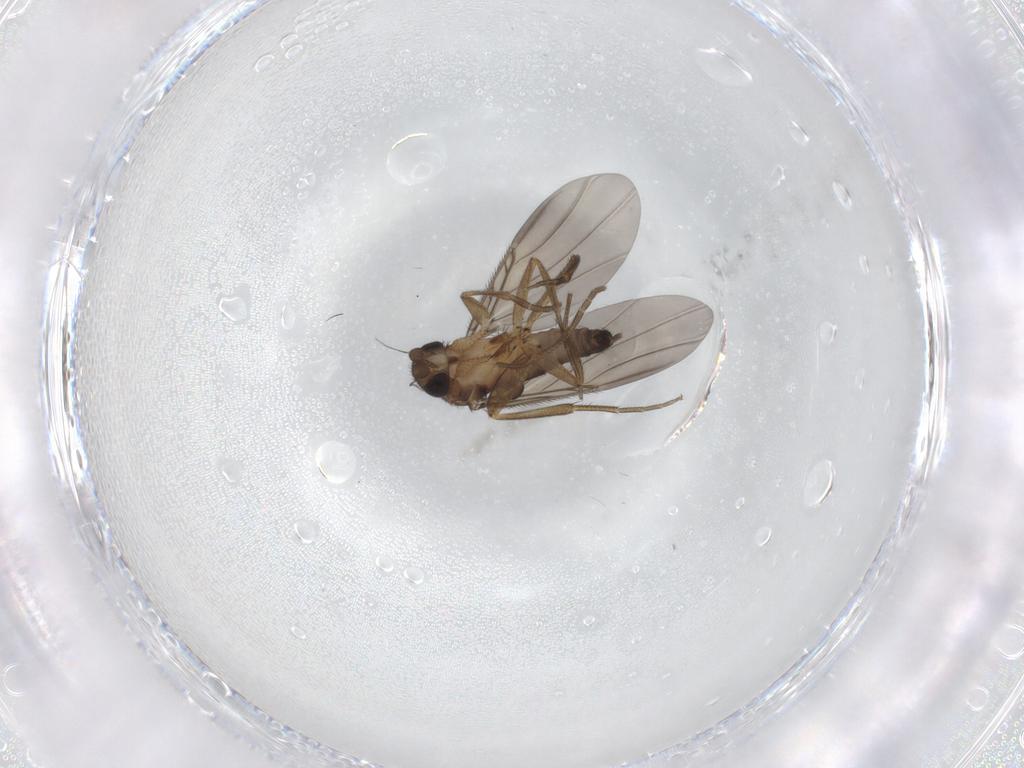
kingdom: Animalia
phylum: Arthropoda
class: Insecta
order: Diptera
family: Phoridae
